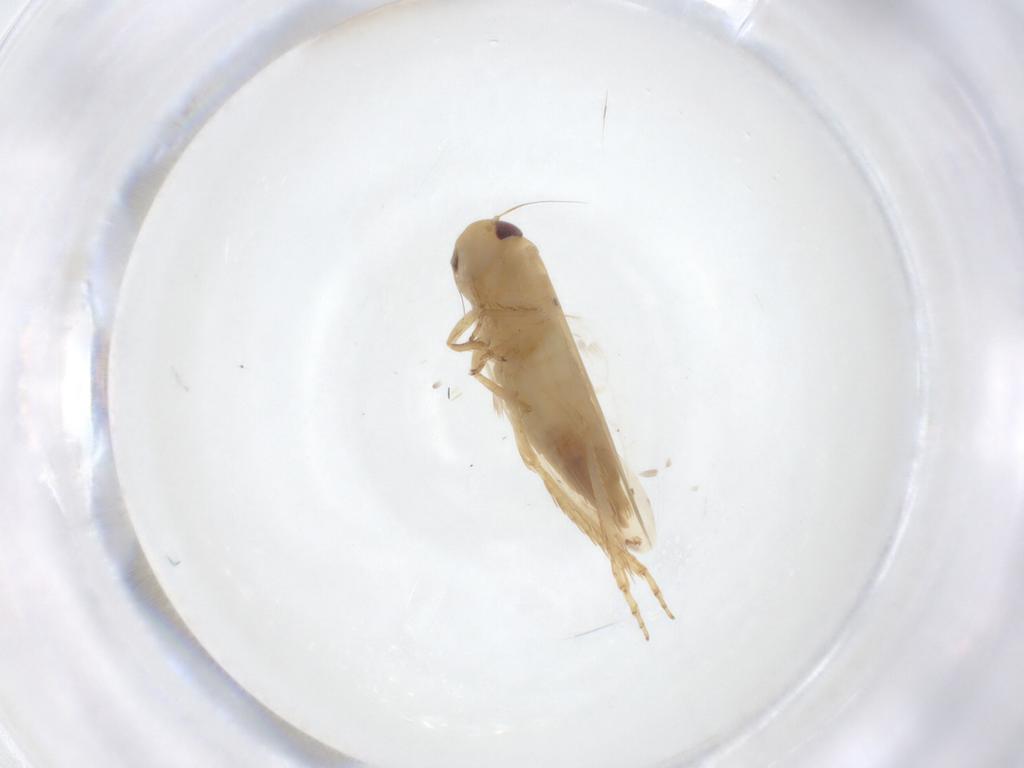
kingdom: Animalia
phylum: Arthropoda
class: Insecta
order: Hemiptera
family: Cicadellidae
